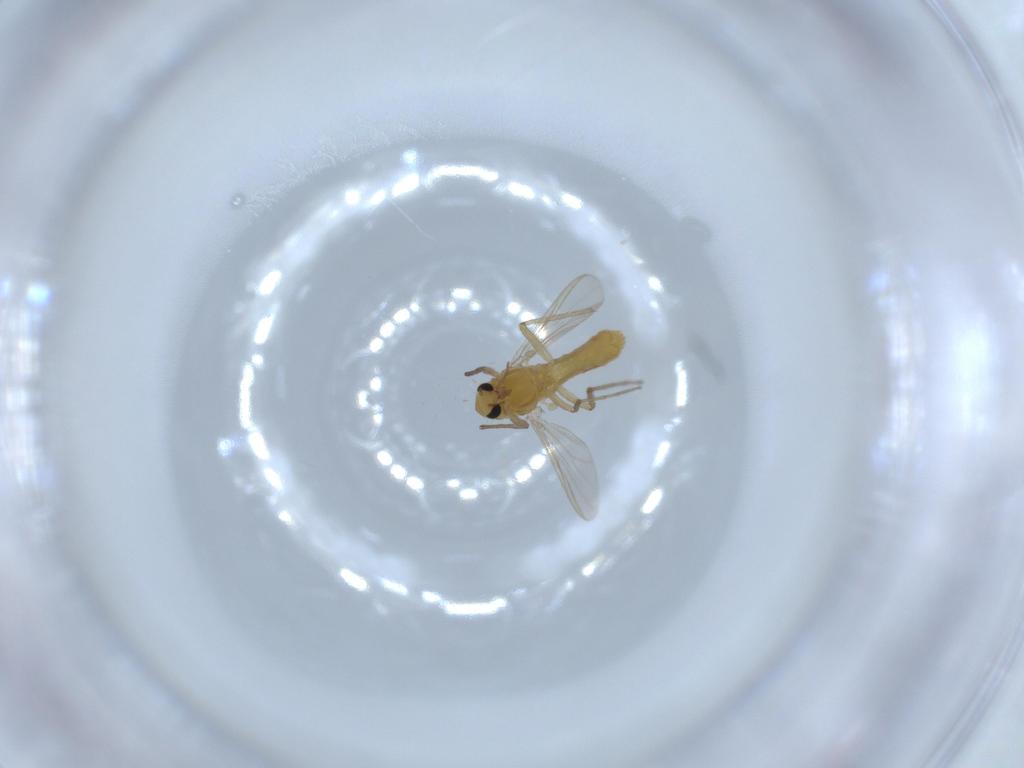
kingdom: Animalia
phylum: Arthropoda
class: Insecta
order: Diptera
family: Chironomidae
